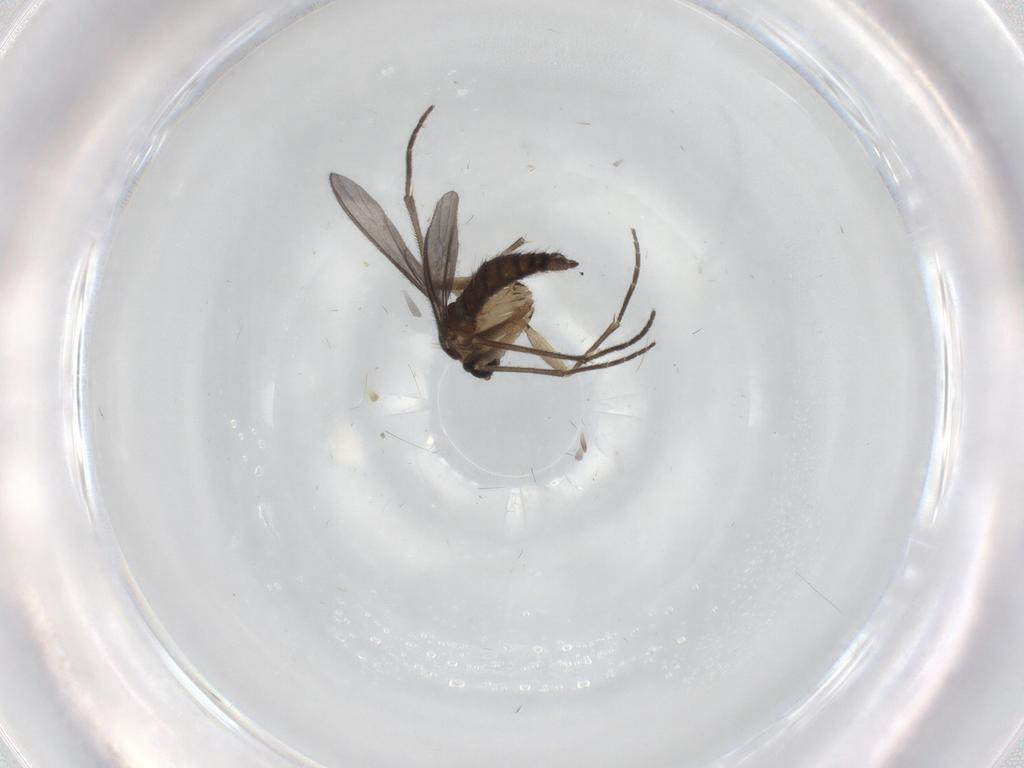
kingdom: Animalia
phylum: Arthropoda
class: Insecta
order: Diptera
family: Sciaridae
